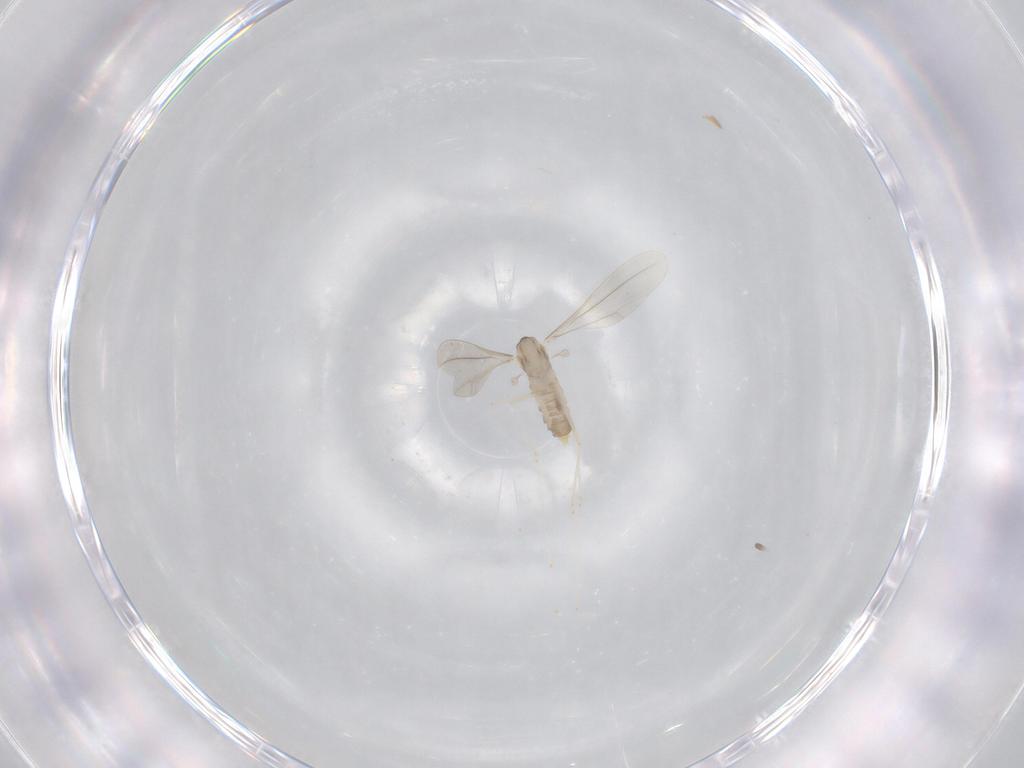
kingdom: Animalia
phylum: Arthropoda
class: Insecta
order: Diptera
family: Cecidomyiidae
